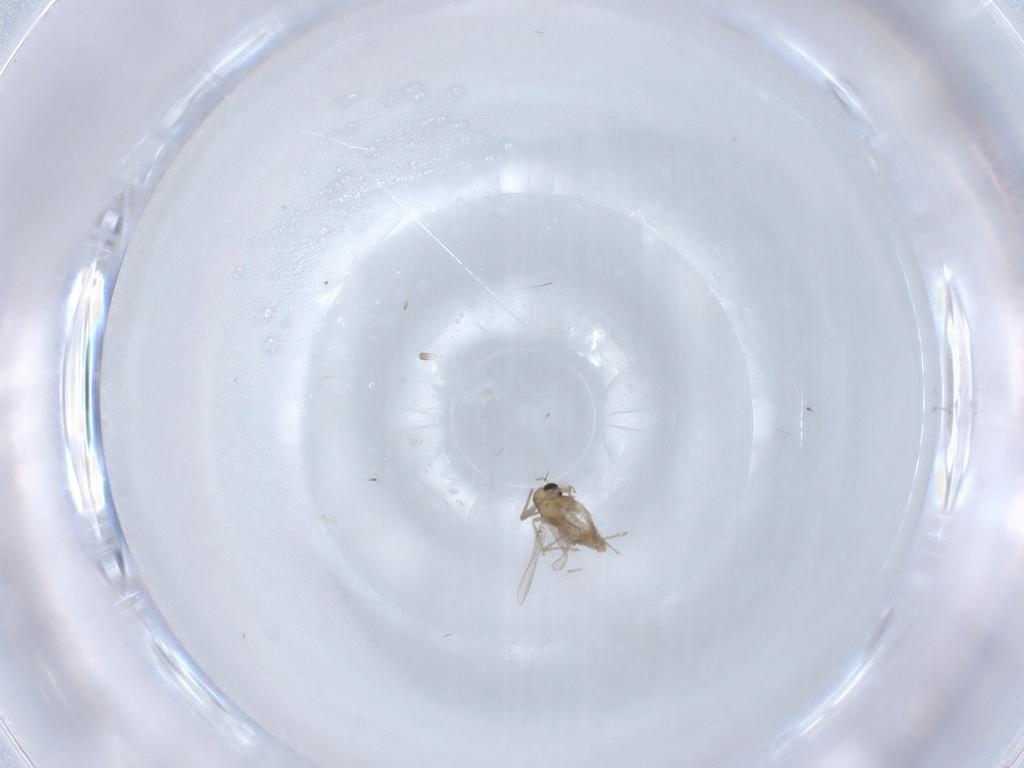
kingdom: Animalia
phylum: Arthropoda
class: Insecta
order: Diptera
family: Chironomidae
